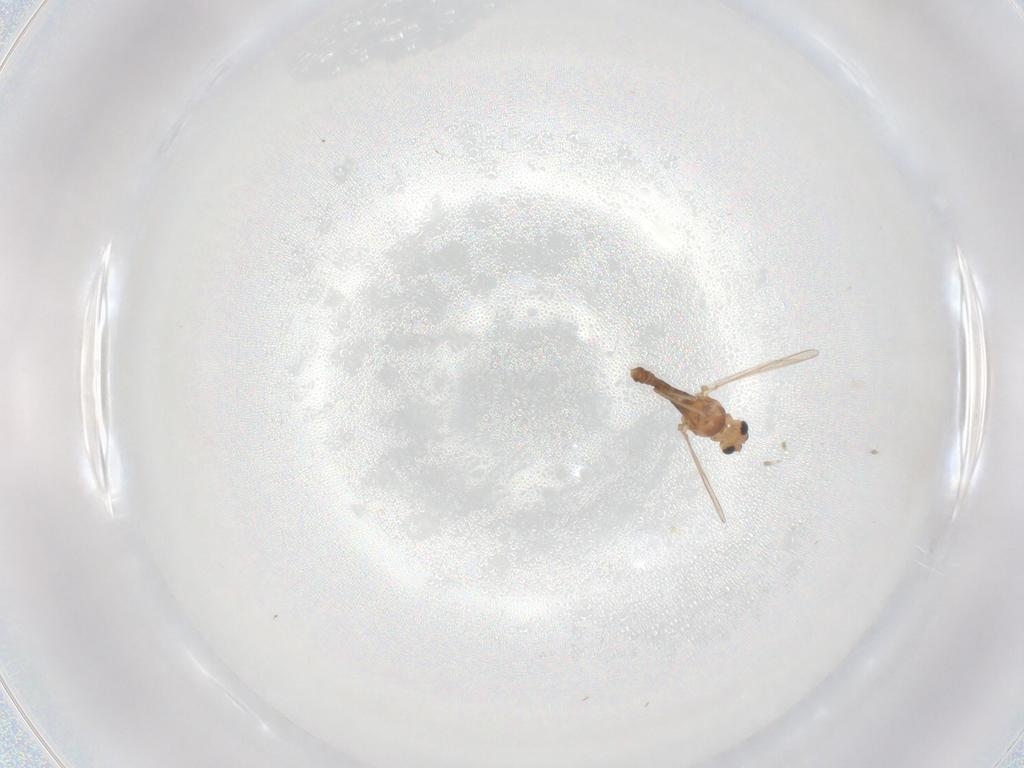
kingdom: Animalia
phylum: Arthropoda
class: Insecta
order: Diptera
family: Chironomidae
